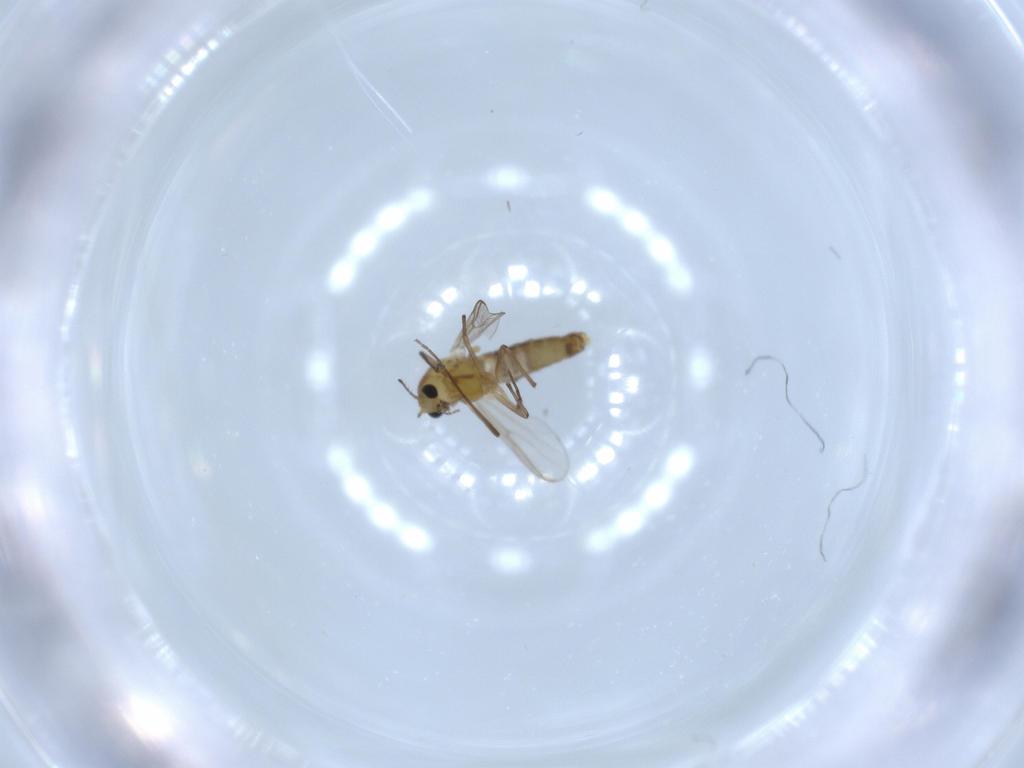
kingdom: Animalia
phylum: Arthropoda
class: Insecta
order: Diptera
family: Chironomidae
